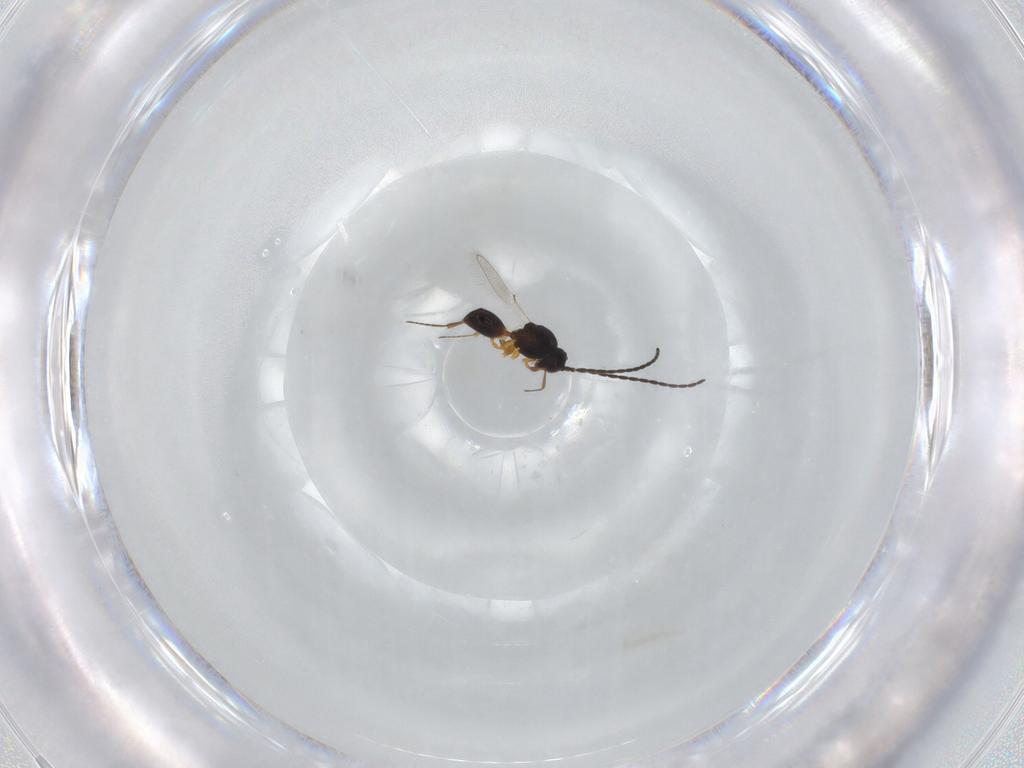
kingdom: Animalia
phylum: Arthropoda
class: Insecta
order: Hymenoptera
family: Figitidae
